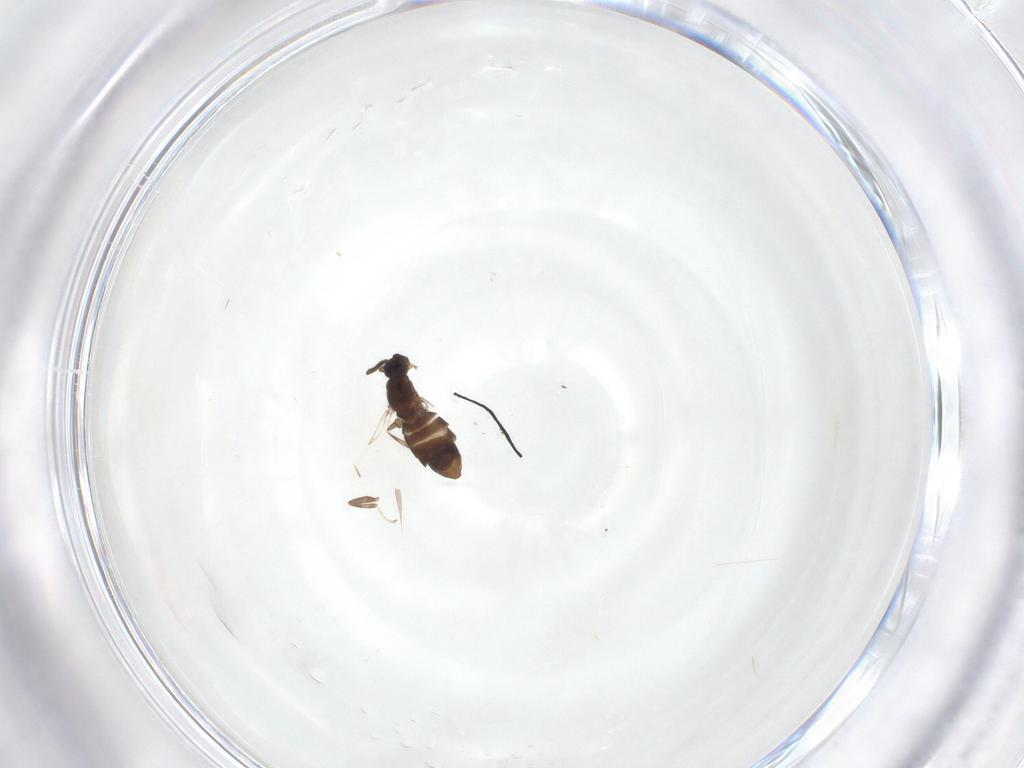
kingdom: Animalia
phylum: Arthropoda
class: Insecta
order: Diptera
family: Scatopsidae
